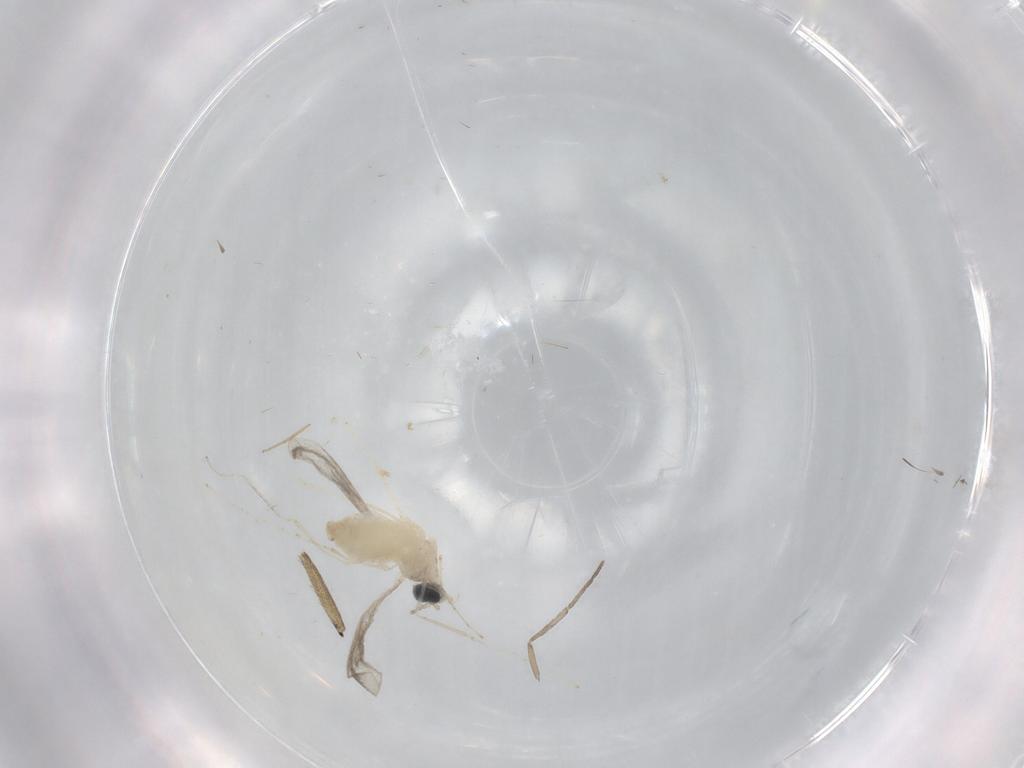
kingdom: Animalia
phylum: Arthropoda
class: Insecta
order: Diptera
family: Cecidomyiidae
